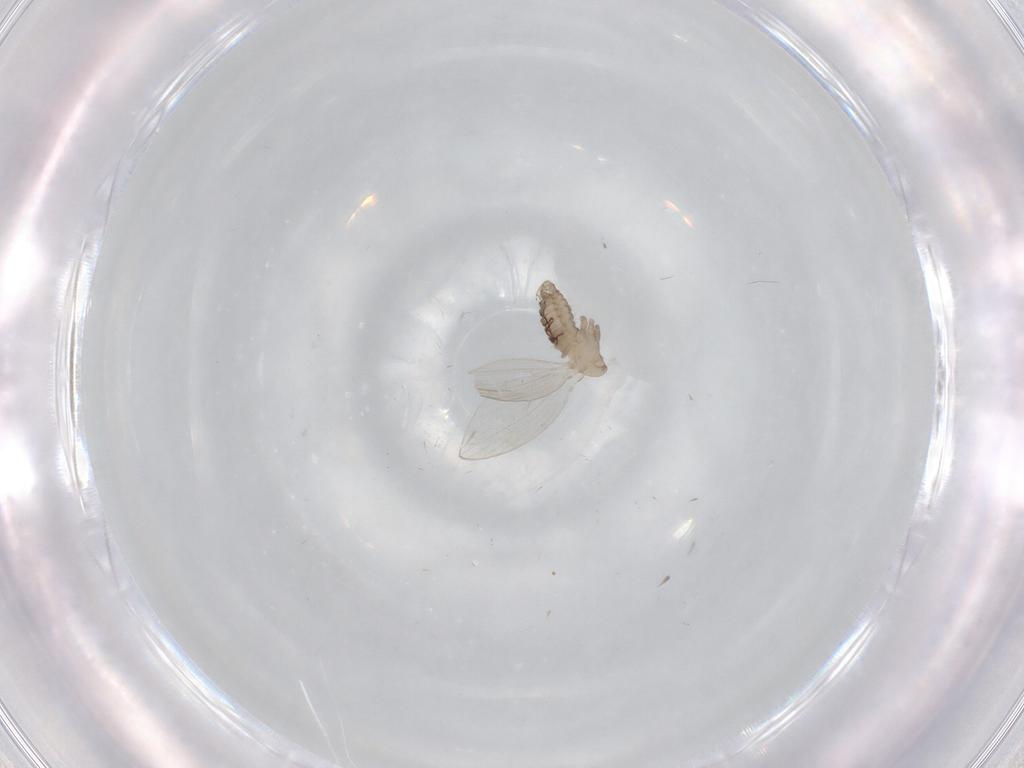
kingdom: Animalia
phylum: Arthropoda
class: Insecta
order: Diptera
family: Psychodidae
